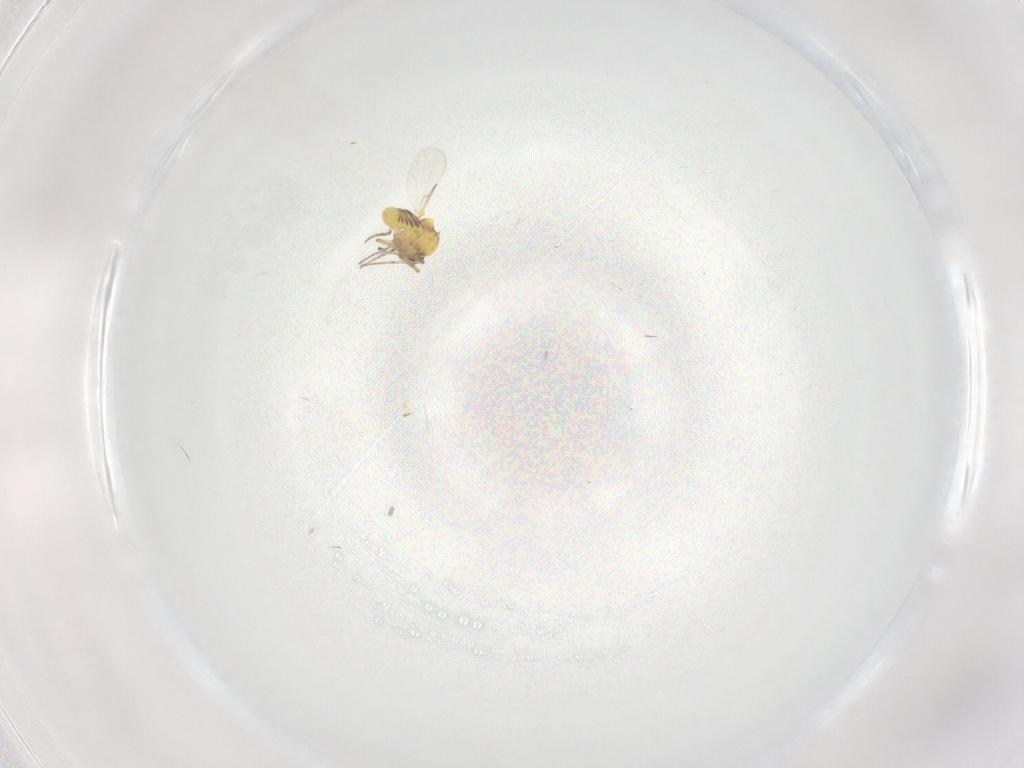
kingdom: Animalia
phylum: Arthropoda
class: Insecta
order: Diptera
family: Ceratopogonidae
